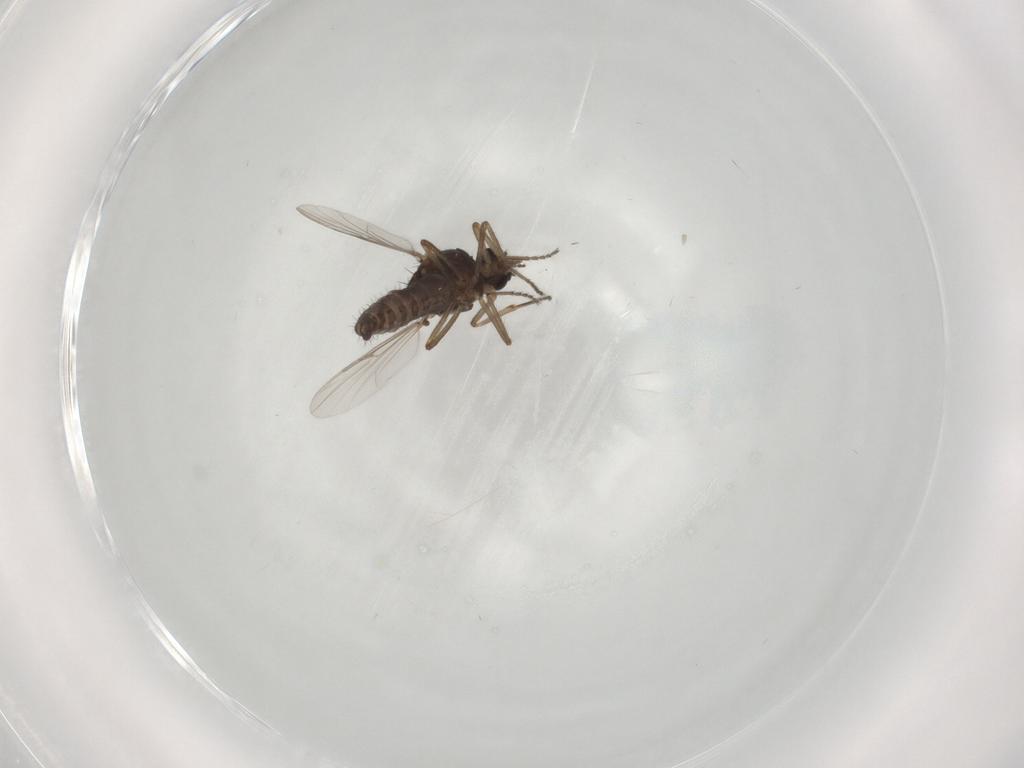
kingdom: Animalia
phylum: Arthropoda
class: Insecta
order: Diptera
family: Ceratopogonidae
